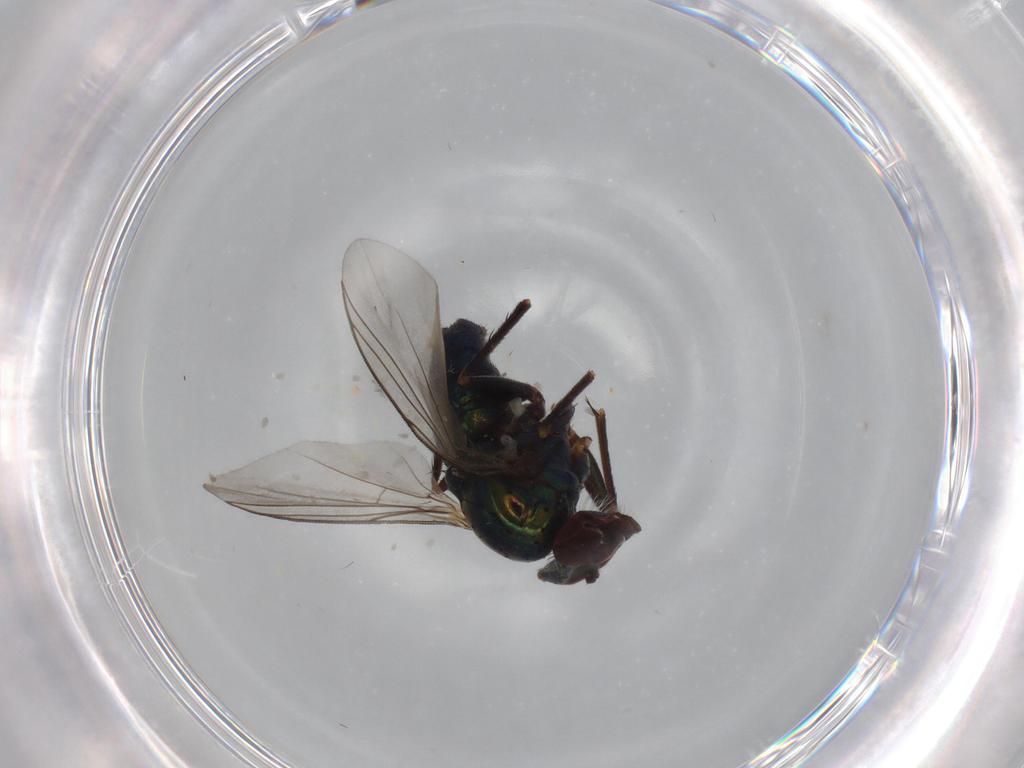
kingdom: Animalia
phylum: Arthropoda
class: Insecta
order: Diptera
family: Dolichopodidae
